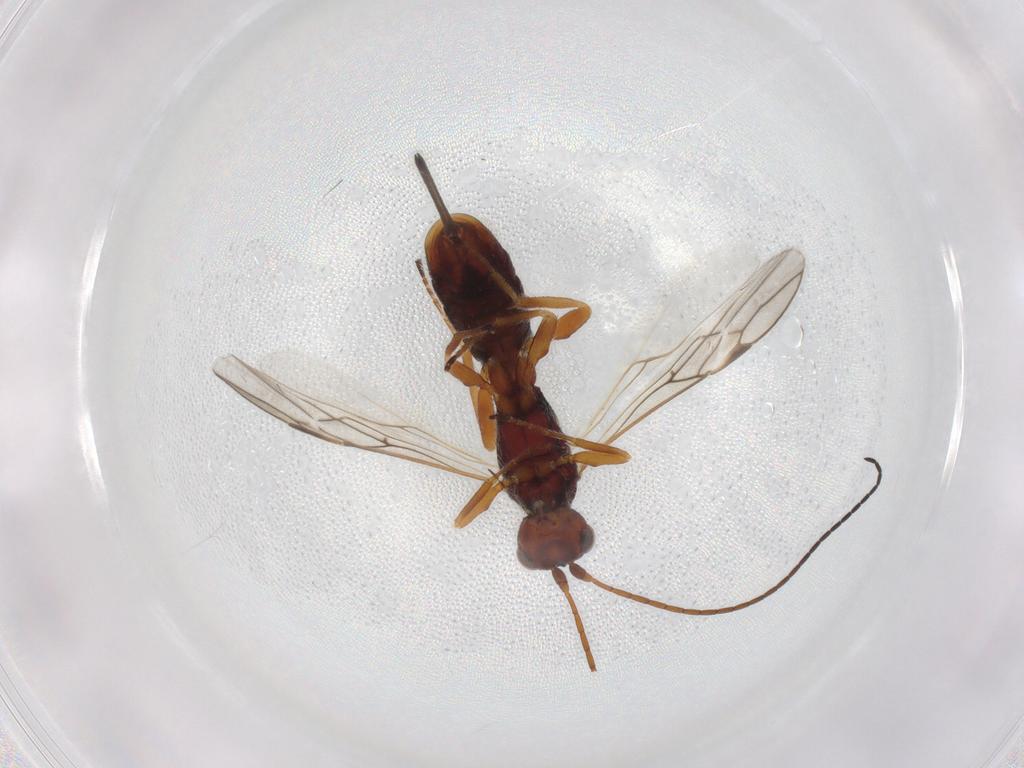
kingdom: Animalia
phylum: Arthropoda
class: Insecta
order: Hymenoptera
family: Braconidae
